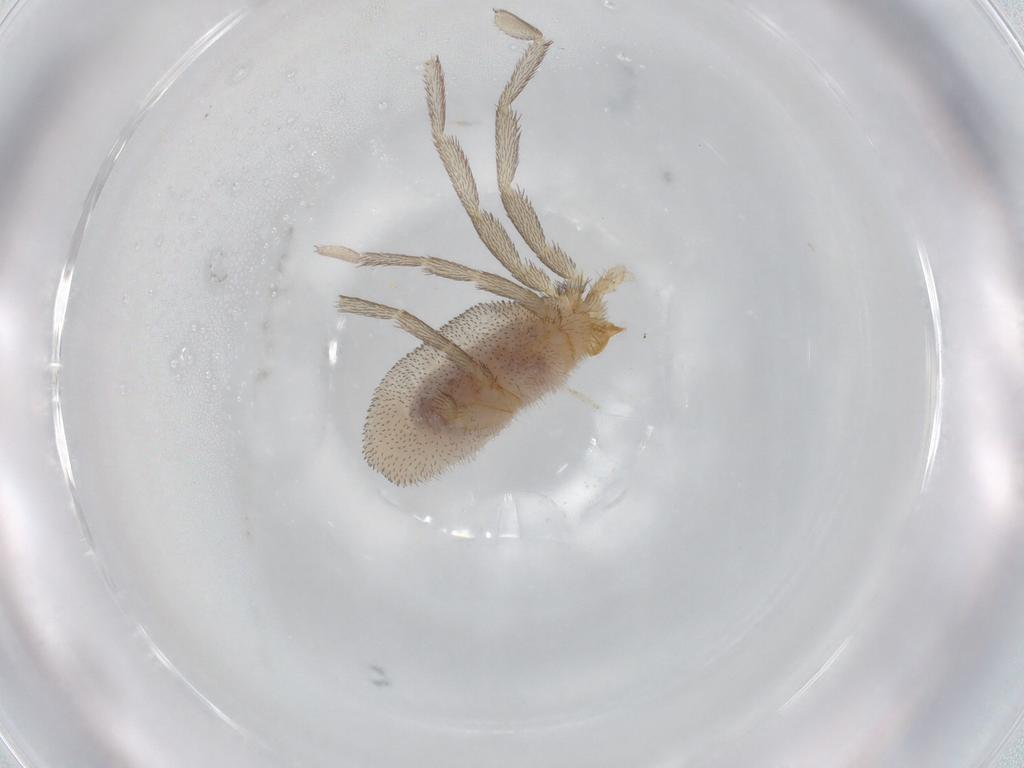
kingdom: Animalia
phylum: Arthropoda
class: Arachnida
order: Trombidiformes
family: Erythraeidae
